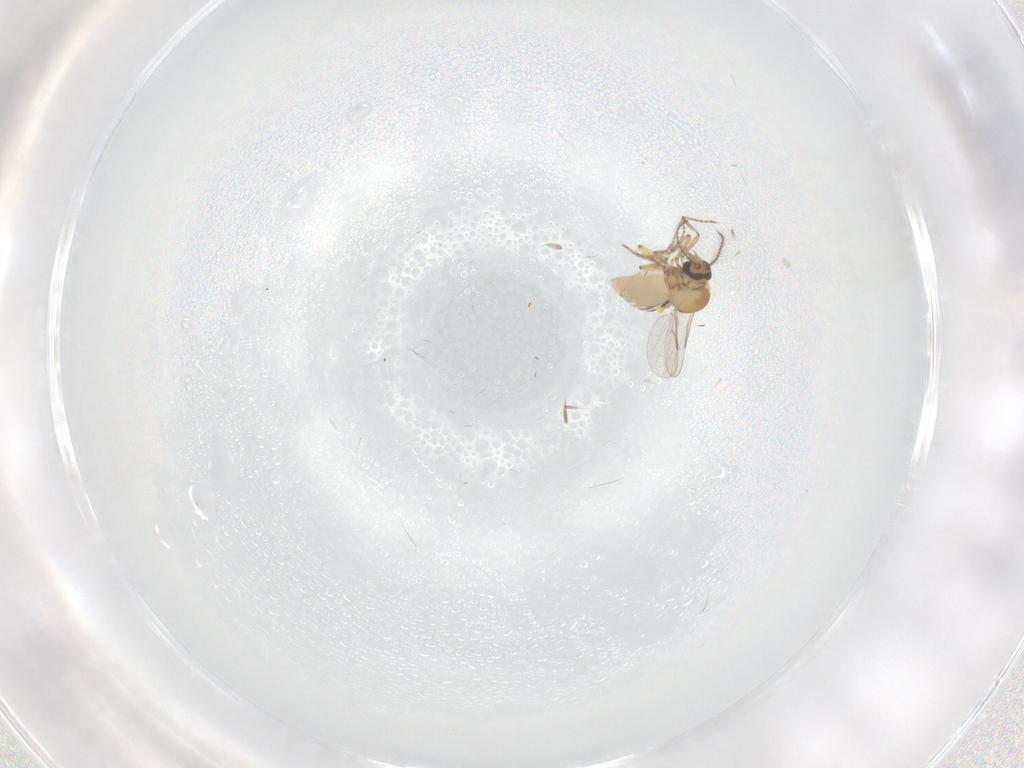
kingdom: Animalia
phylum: Arthropoda
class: Insecta
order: Diptera
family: Ceratopogonidae
